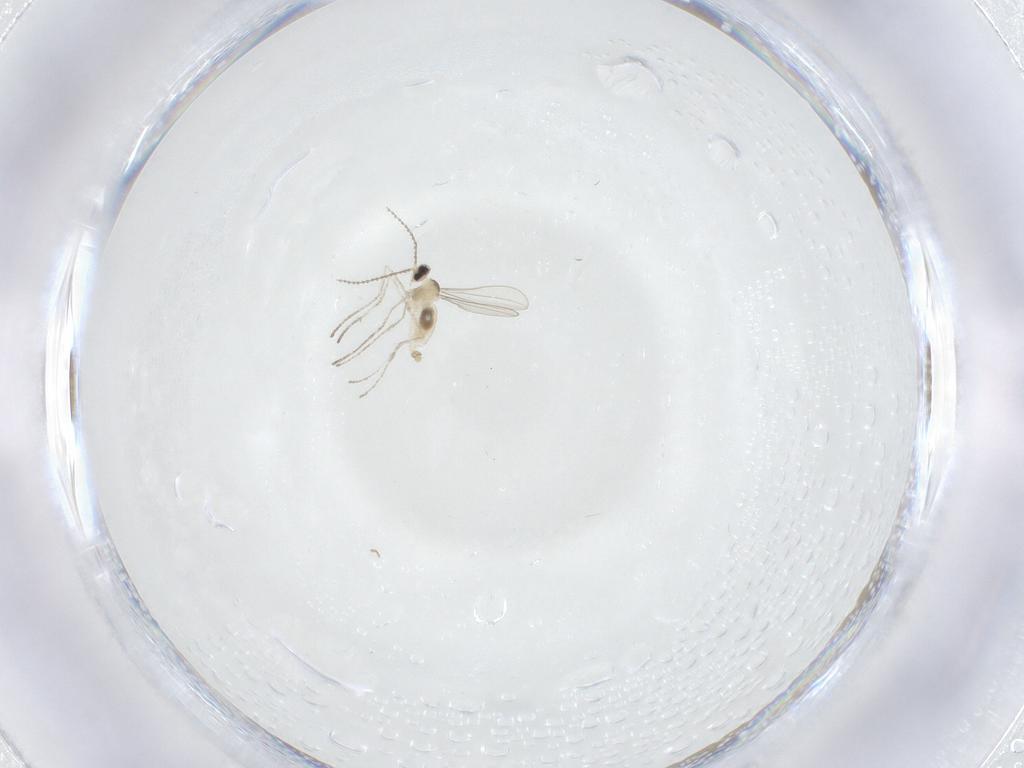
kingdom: Animalia
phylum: Arthropoda
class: Insecta
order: Diptera
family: Cecidomyiidae
